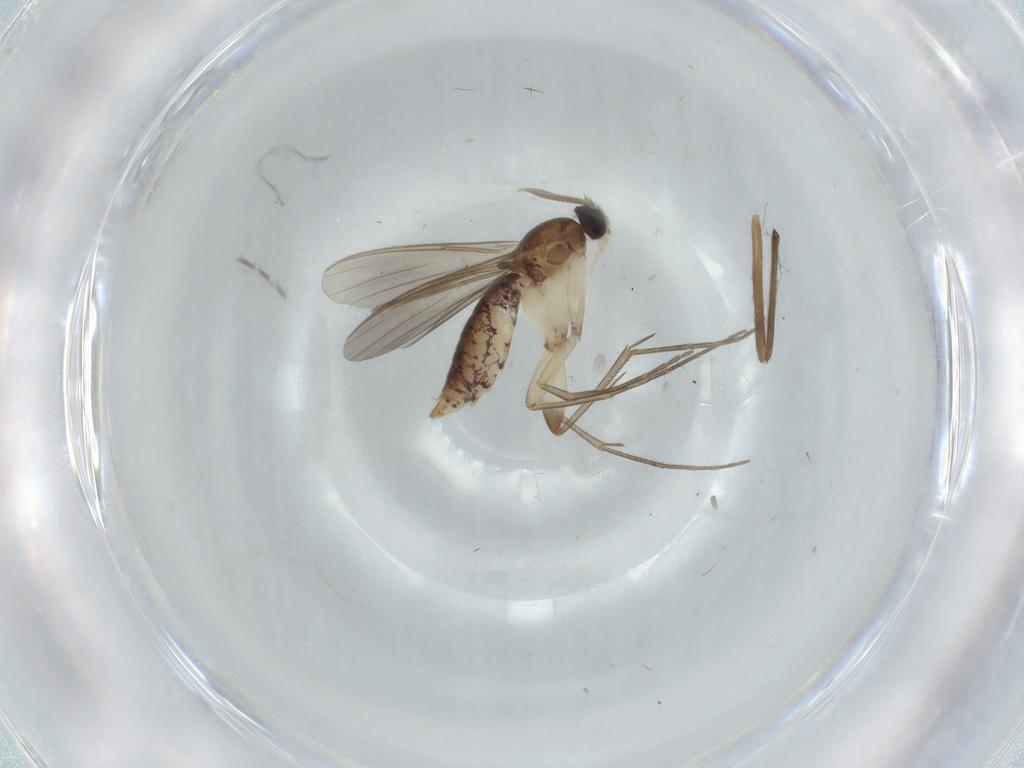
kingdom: Animalia
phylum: Arthropoda
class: Insecta
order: Diptera
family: Mycetophilidae
